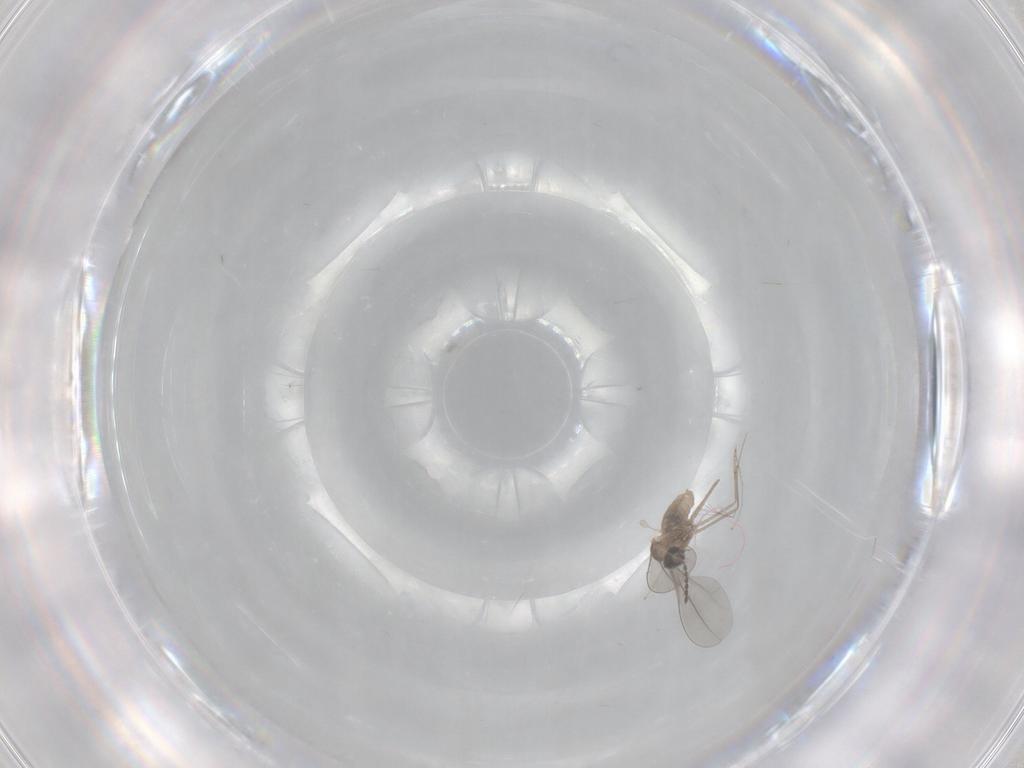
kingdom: Animalia
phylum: Arthropoda
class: Insecta
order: Diptera
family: Cecidomyiidae
